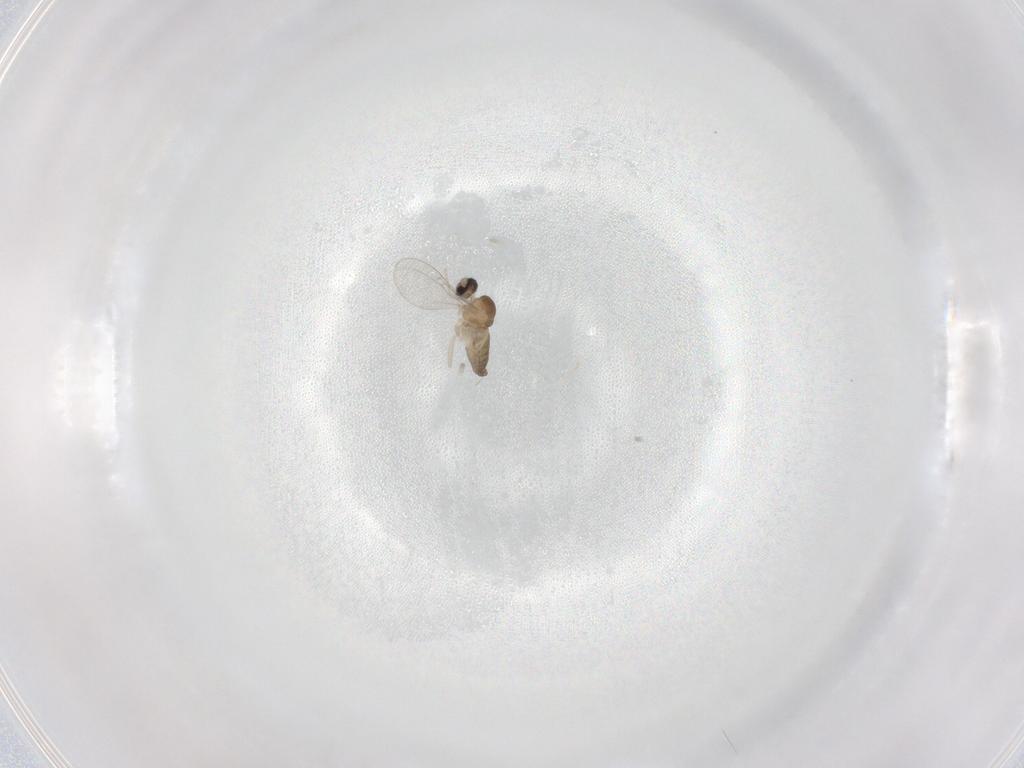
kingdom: Animalia
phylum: Arthropoda
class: Insecta
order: Diptera
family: Cecidomyiidae
